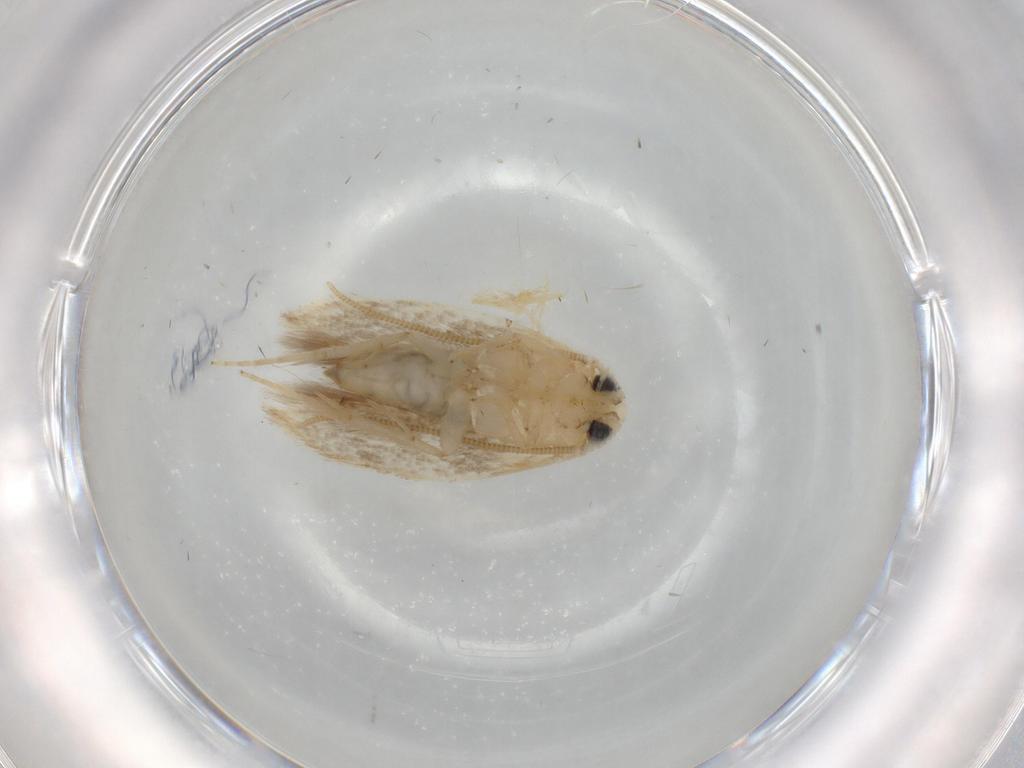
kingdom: Animalia
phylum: Arthropoda
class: Insecta
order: Lepidoptera
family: Opostegidae
